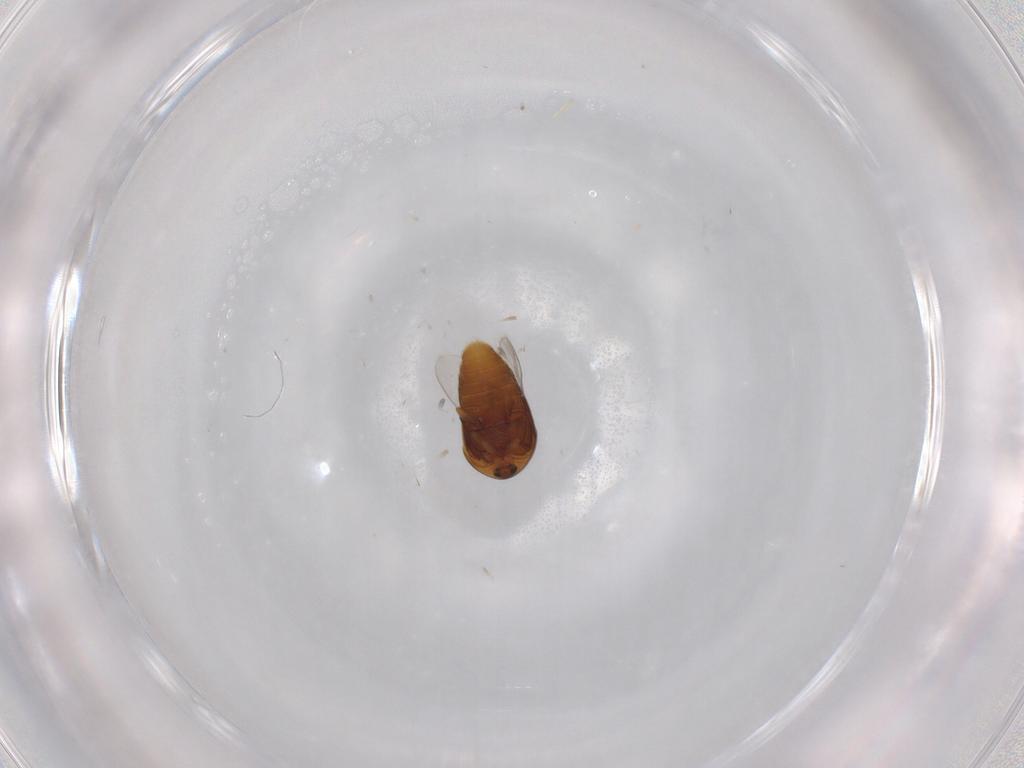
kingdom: Animalia
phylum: Arthropoda
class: Insecta
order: Coleoptera
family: Corylophidae
